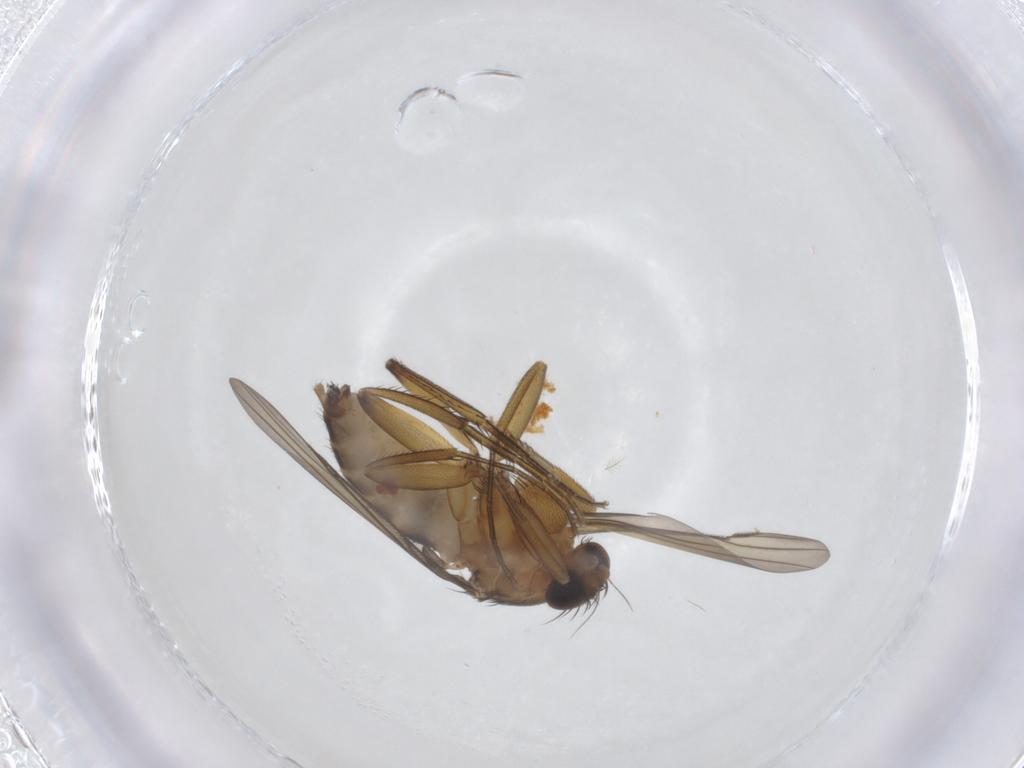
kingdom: Animalia
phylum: Arthropoda
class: Insecta
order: Diptera
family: Phoridae
